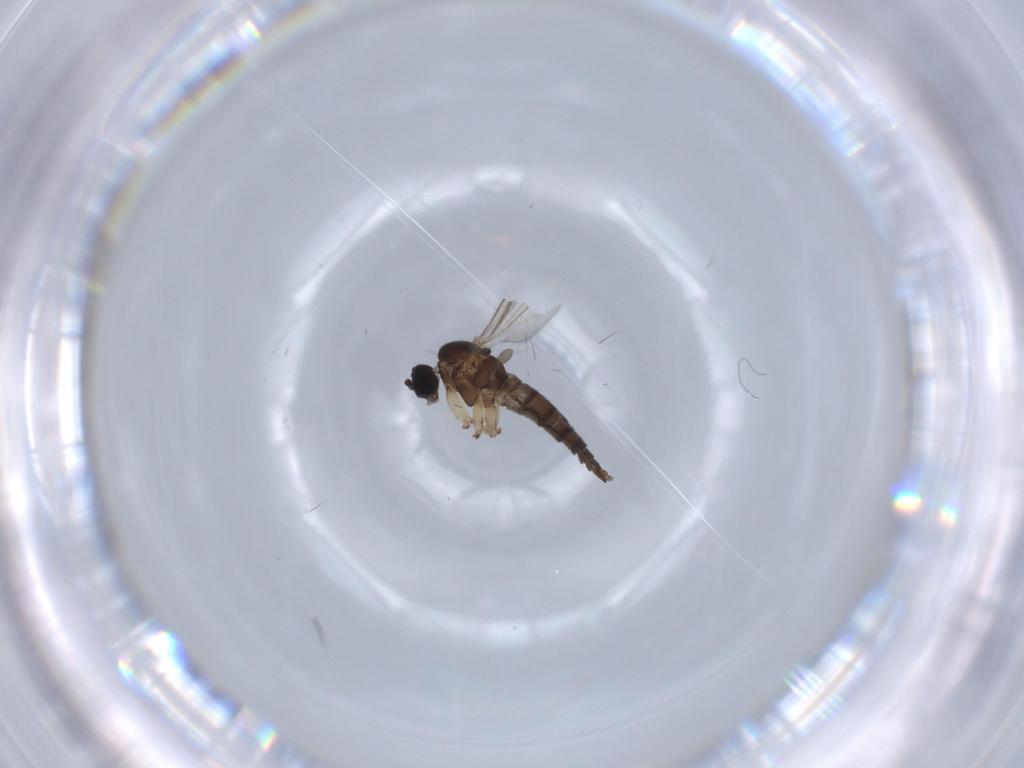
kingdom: Animalia
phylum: Arthropoda
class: Insecta
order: Diptera
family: Sciaridae
